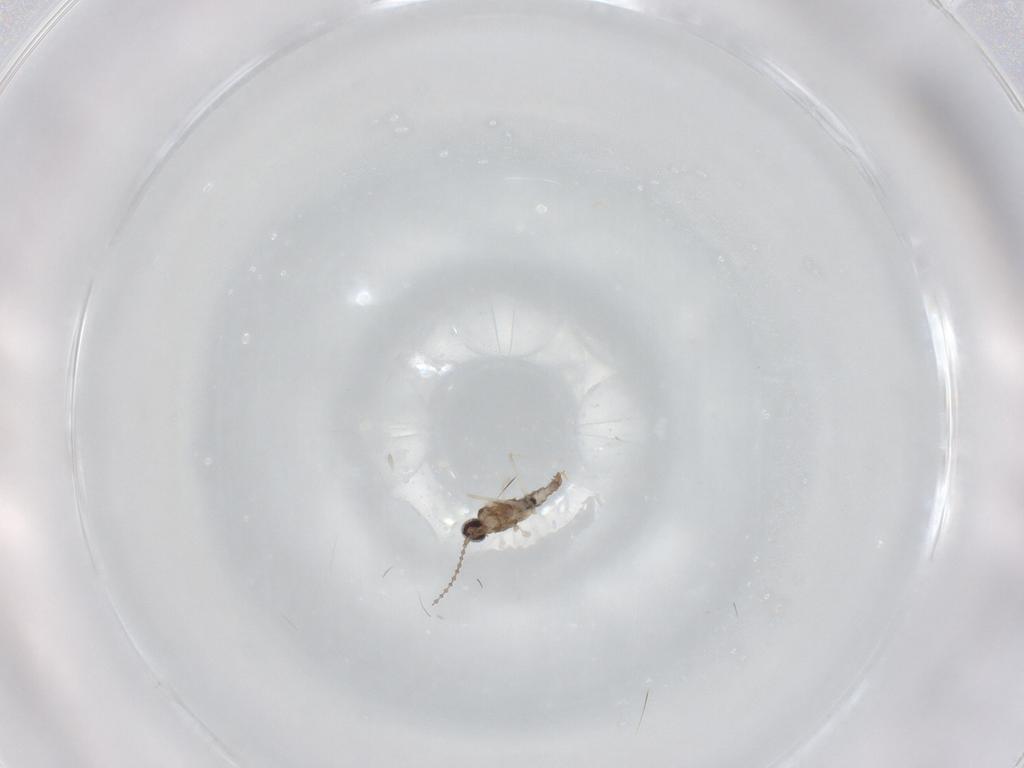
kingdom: Animalia
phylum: Arthropoda
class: Insecta
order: Diptera
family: Cecidomyiidae
